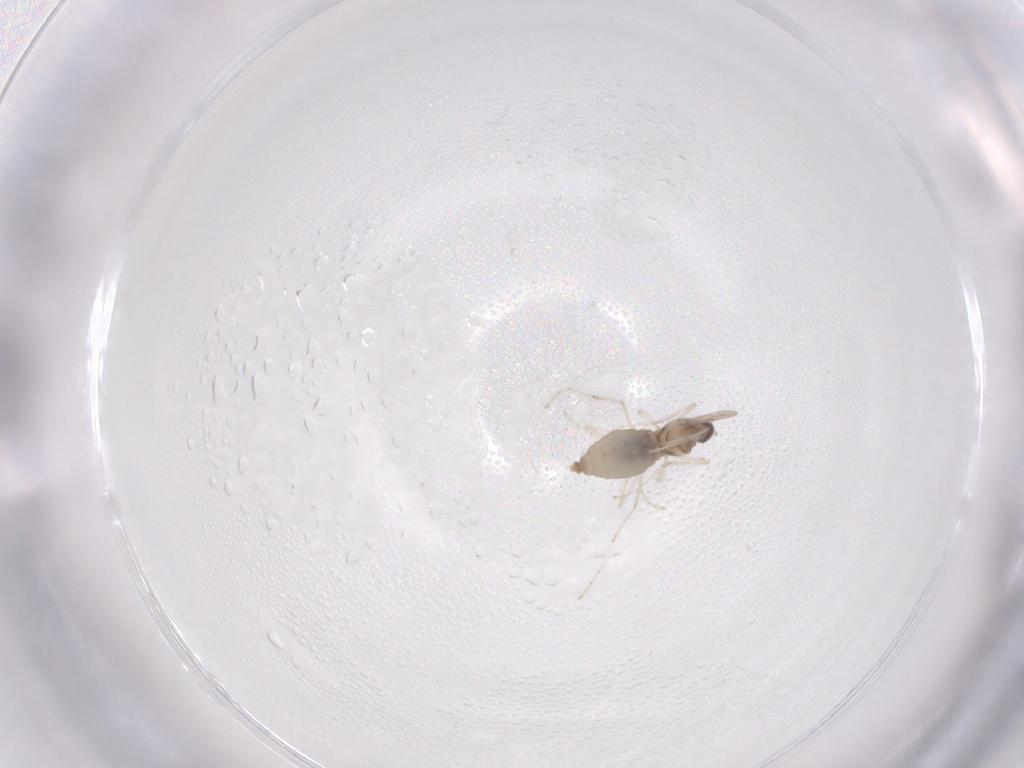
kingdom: Animalia
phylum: Arthropoda
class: Insecta
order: Diptera
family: Cecidomyiidae
